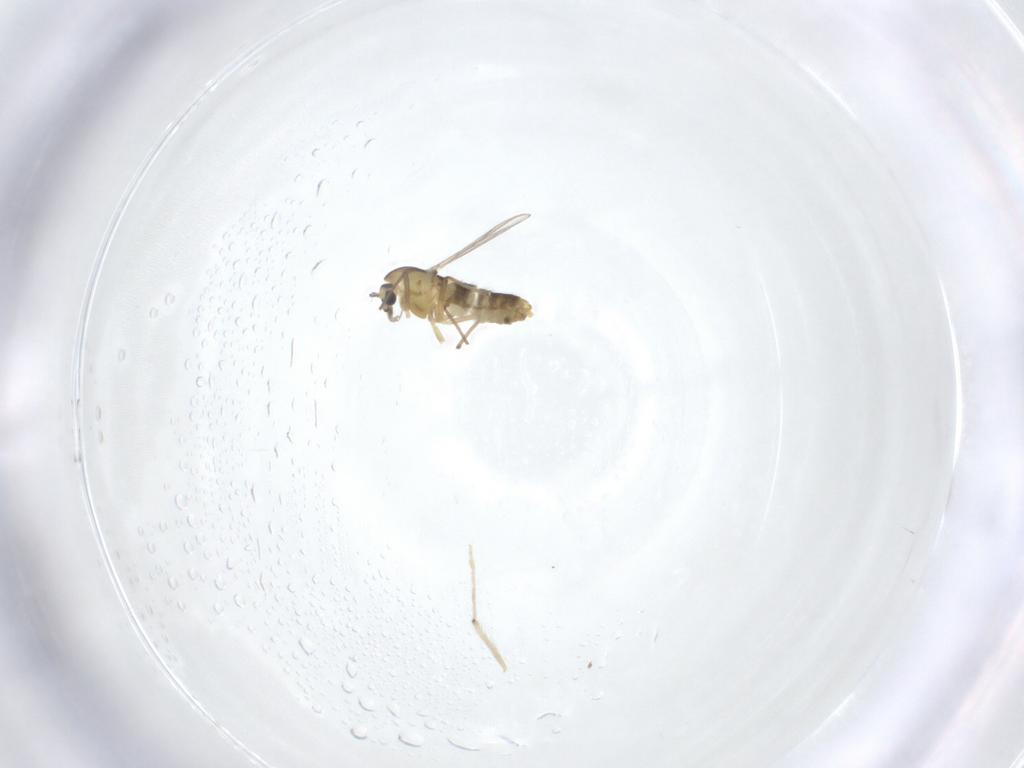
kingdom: Animalia
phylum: Arthropoda
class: Insecta
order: Diptera
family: Chironomidae
